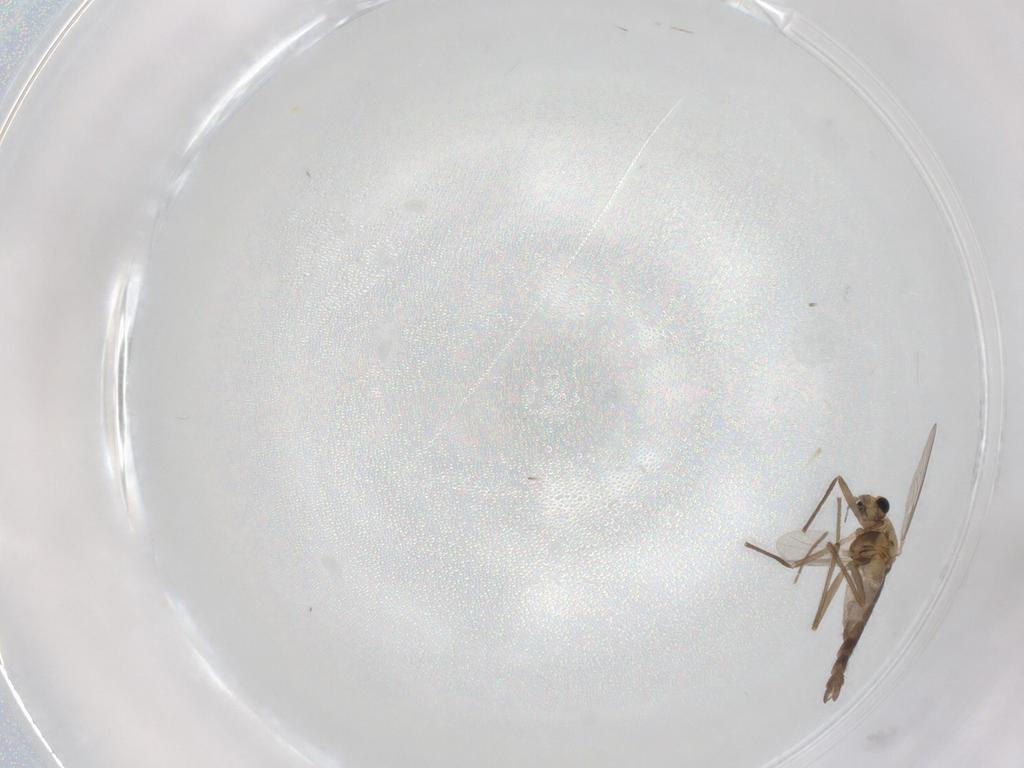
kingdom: Animalia
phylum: Arthropoda
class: Insecta
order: Diptera
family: Chironomidae
